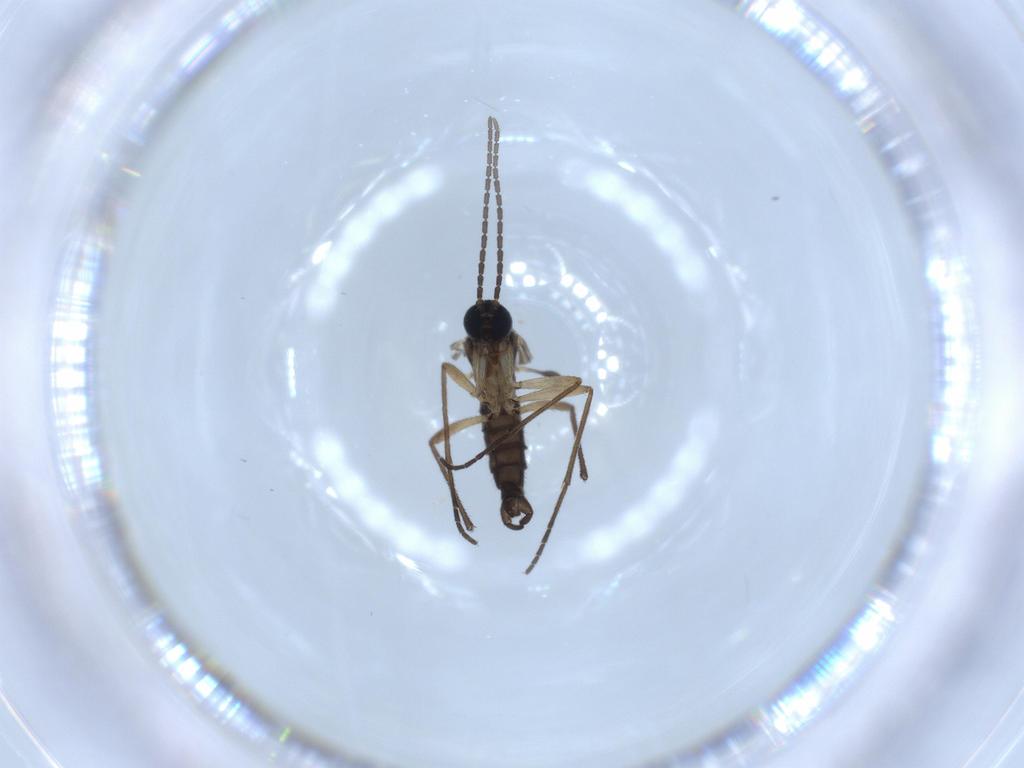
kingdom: Animalia
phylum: Arthropoda
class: Insecta
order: Diptera
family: Sciaridae
